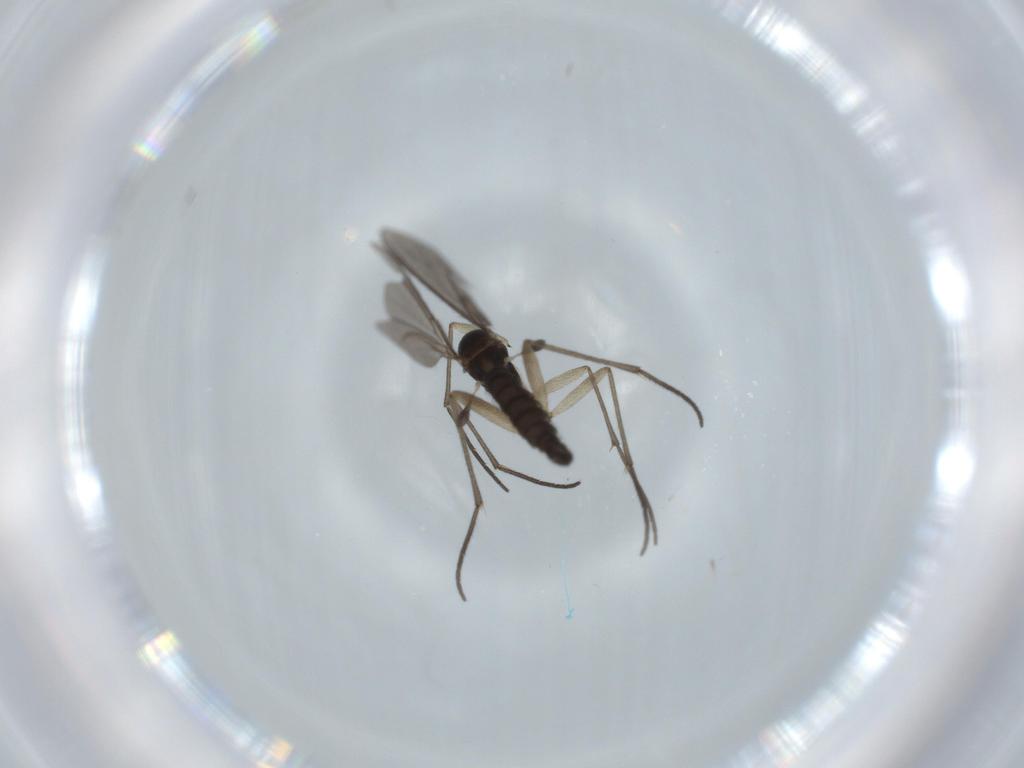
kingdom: Animalia
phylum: Arthropoda
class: Insecta
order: Diptera
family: Sciaridae
